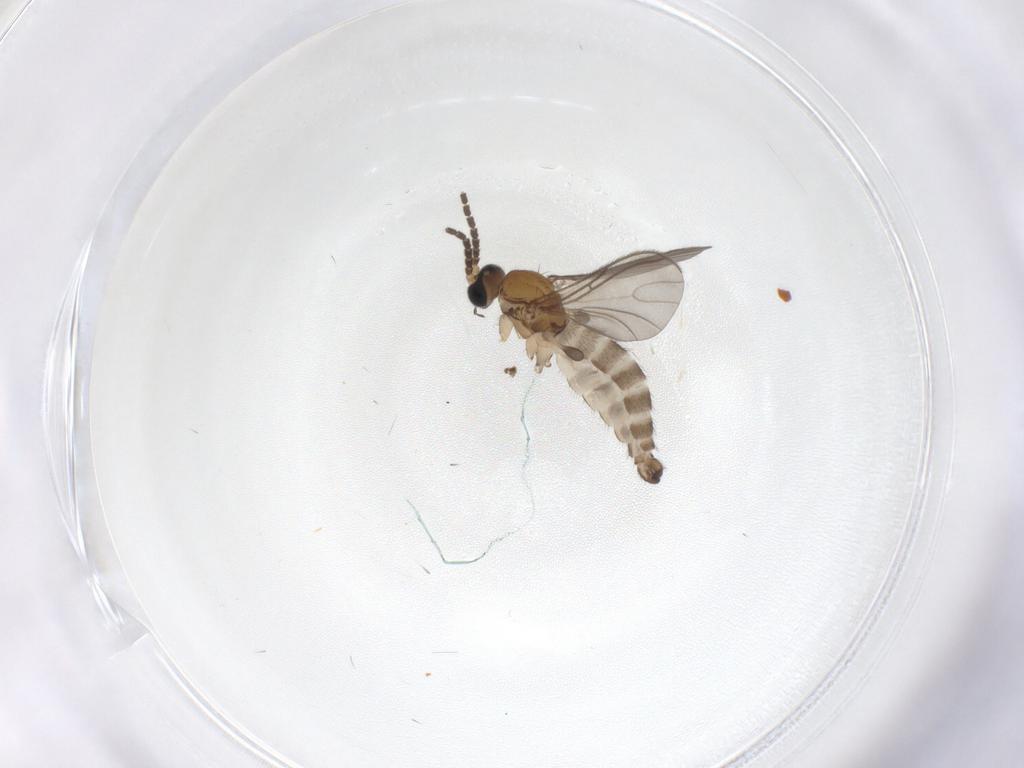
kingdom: Animalia
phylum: Arthropoda
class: Insecta
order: Diptera
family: Sciaridae
